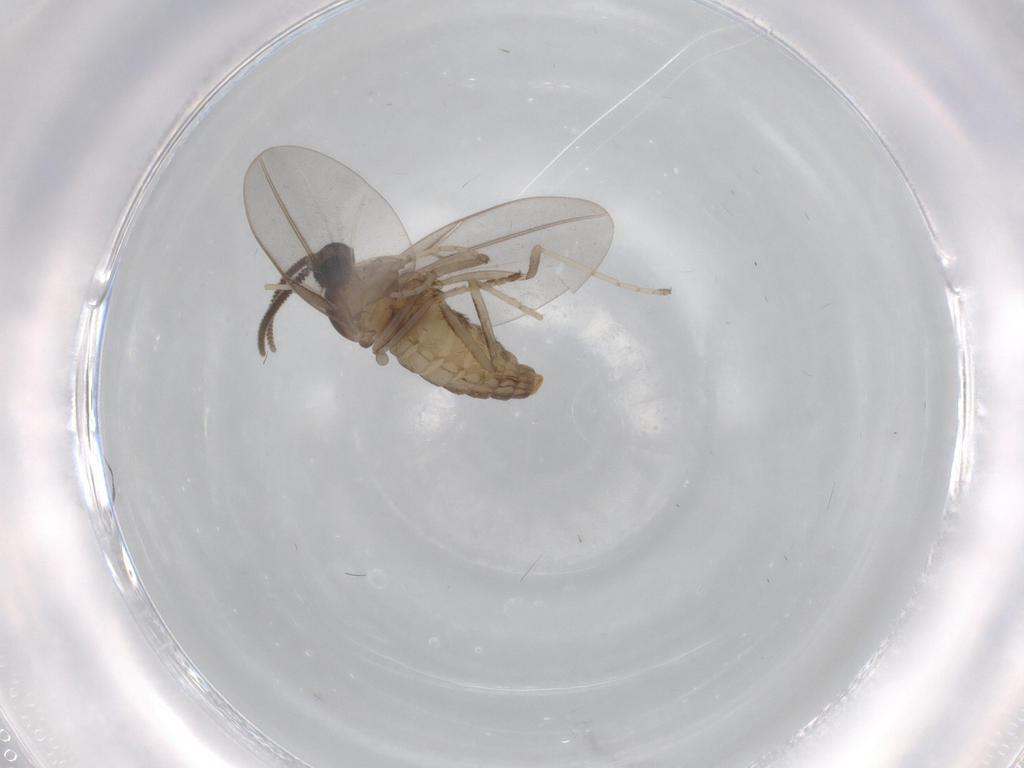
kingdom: Animalia
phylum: Arthropoda
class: Insecta
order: Diptera
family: Cecidomyiidae
